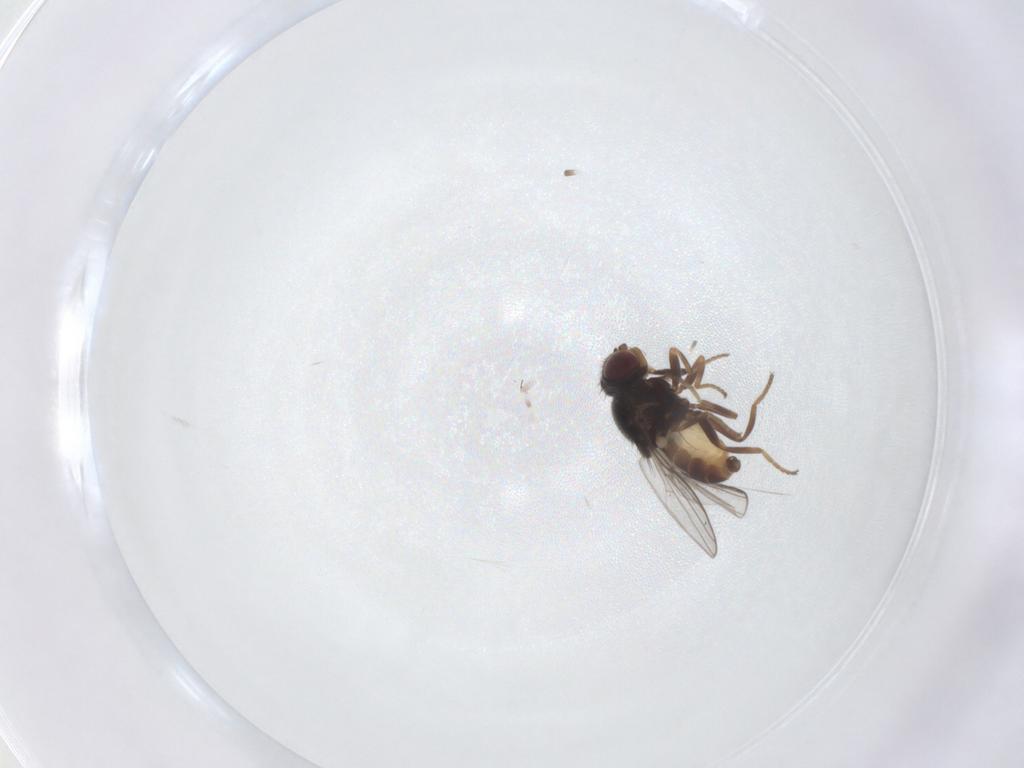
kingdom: Animalia
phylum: Arthropoda
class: Insecta
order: Diptera
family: Chloropidae
